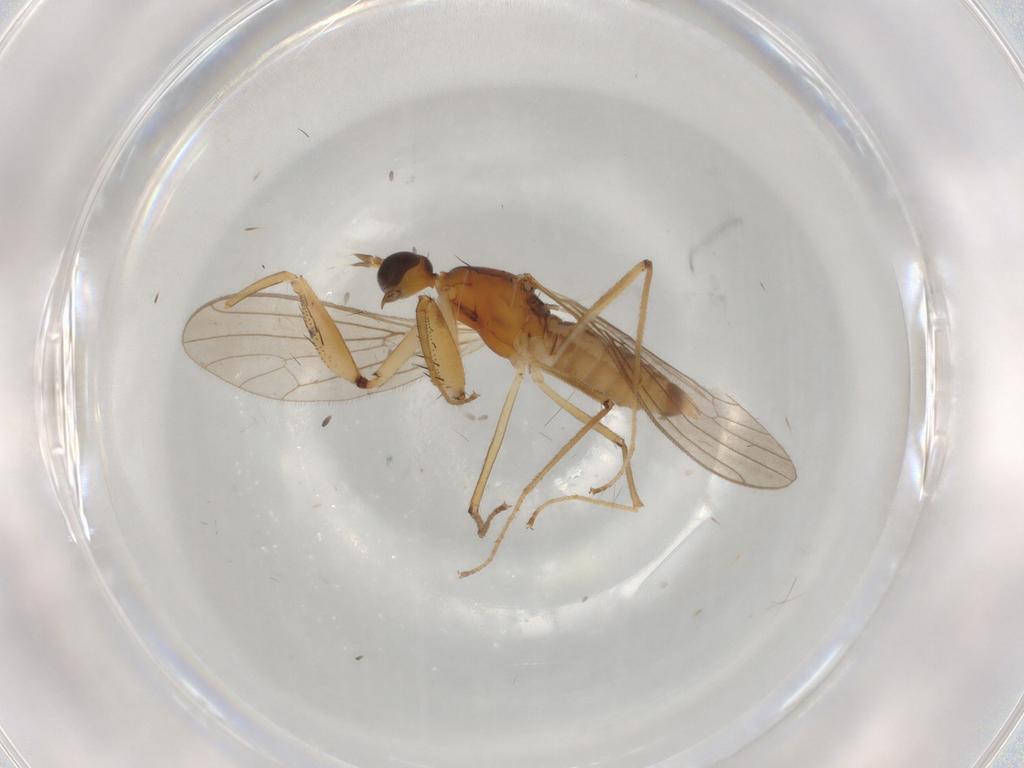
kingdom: Animalia
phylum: Arthropoda
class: Insecta
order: Diptera
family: Empididae
